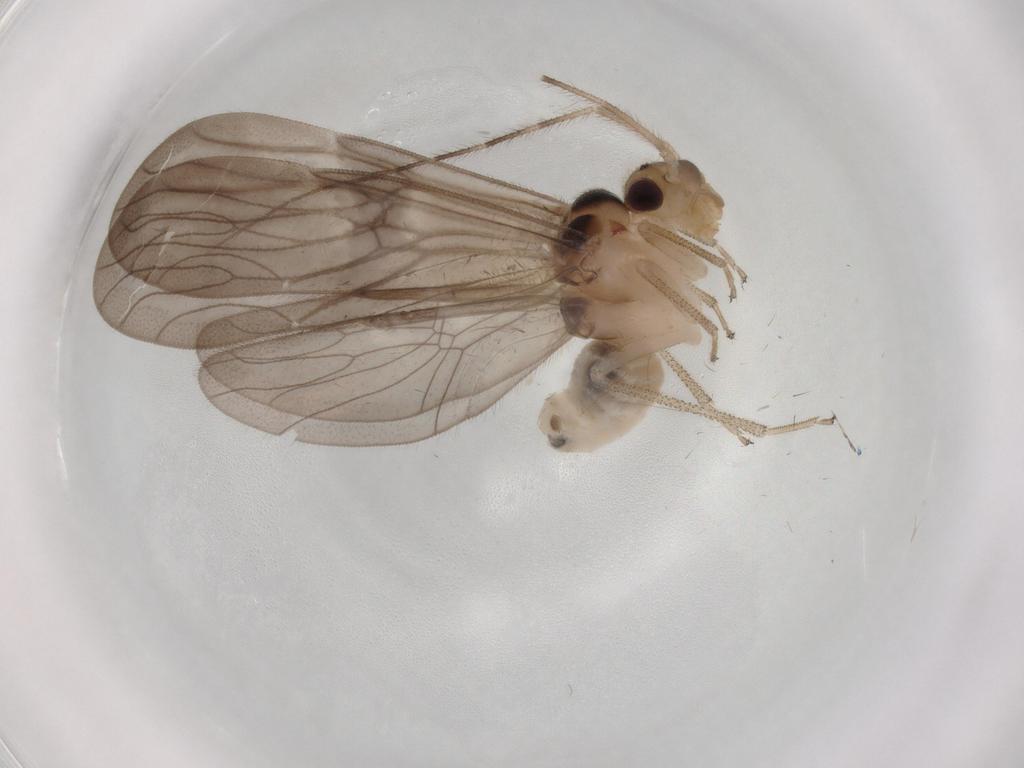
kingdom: Animalia
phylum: Arthropoda
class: Insecta
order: Psocodea
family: Amphipsocidae
